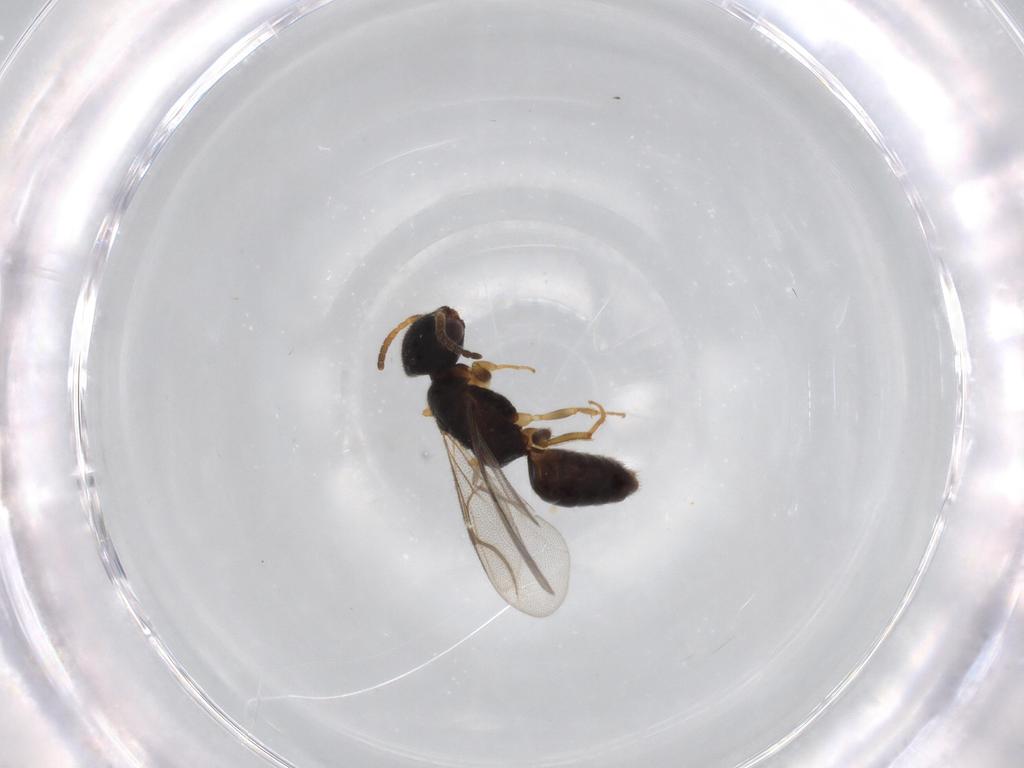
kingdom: Animalia
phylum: Arthropoda
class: Insecta
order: Hymenoptera
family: Bethylidae
